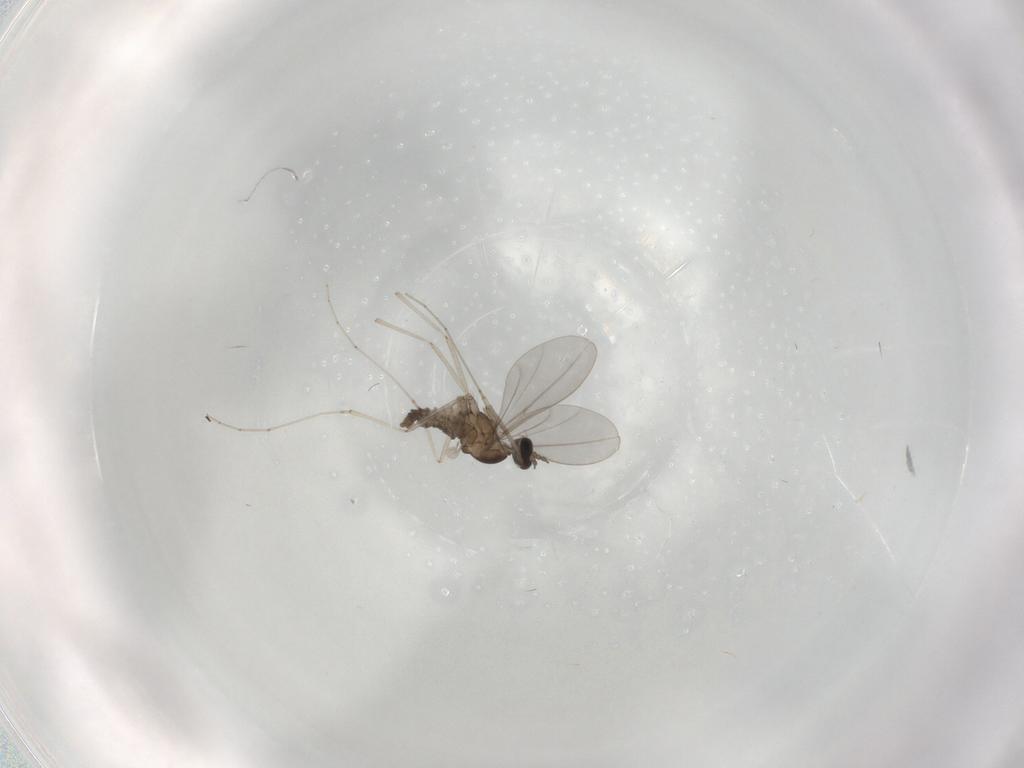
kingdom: Animalia
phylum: Arthropoda
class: Insecta
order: Diptera
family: Cecidomyiidae
